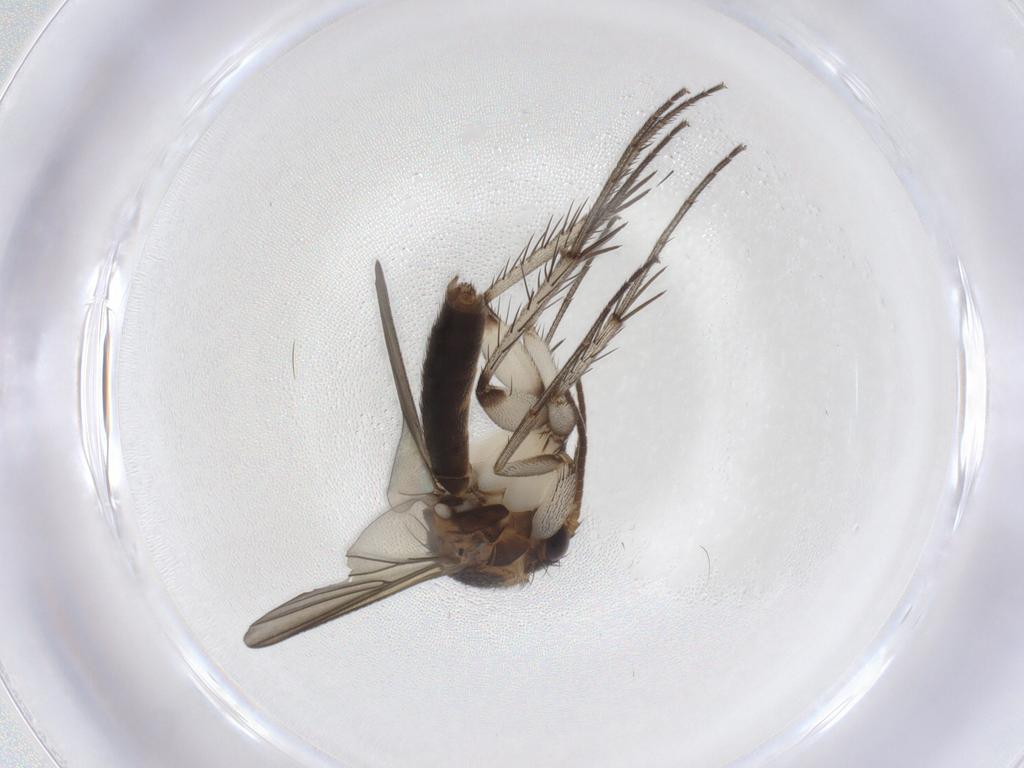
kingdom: Animalia
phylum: Arthropoda
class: Insecta
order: Diptera
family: Mycetophilidae
